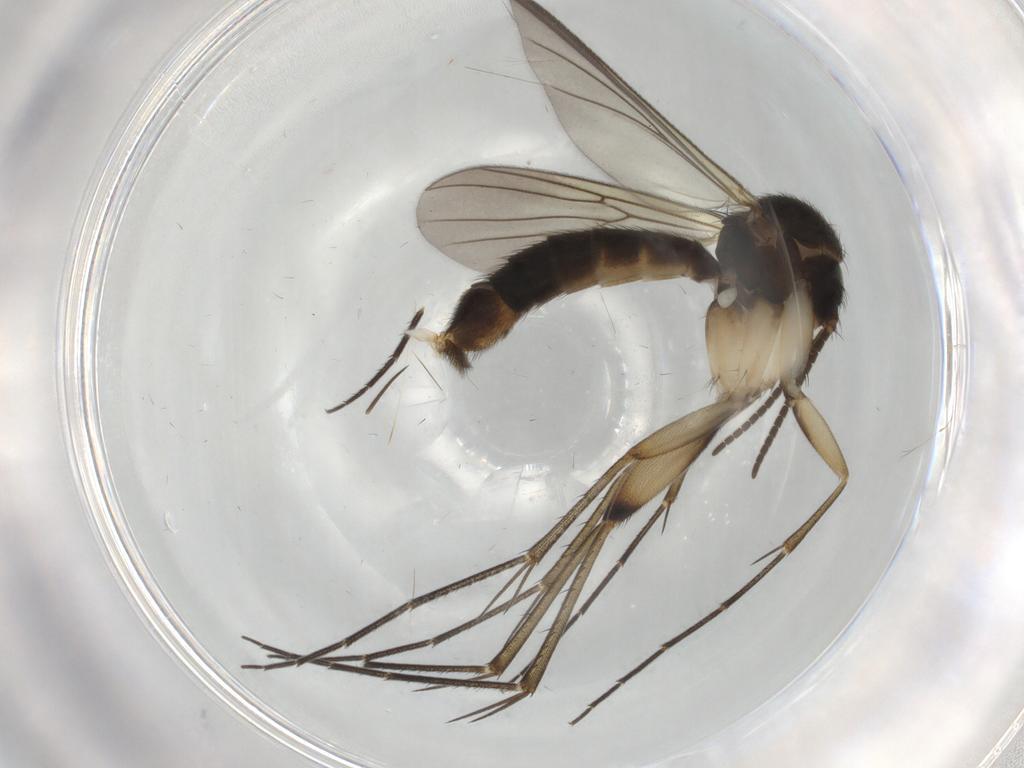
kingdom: Animalia
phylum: Arthropoda
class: Insecta
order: Diptera
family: Mycetophilidae
